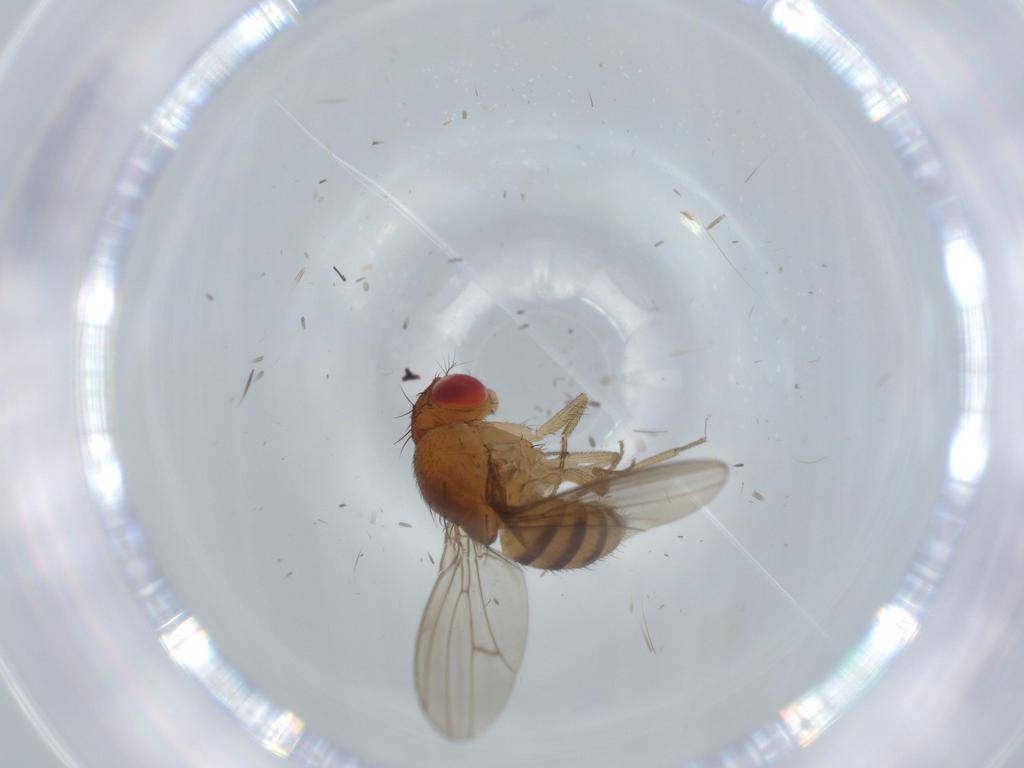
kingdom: Animalia
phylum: Arthropoda
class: Insecta
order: Diptera
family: Drosophilidae
